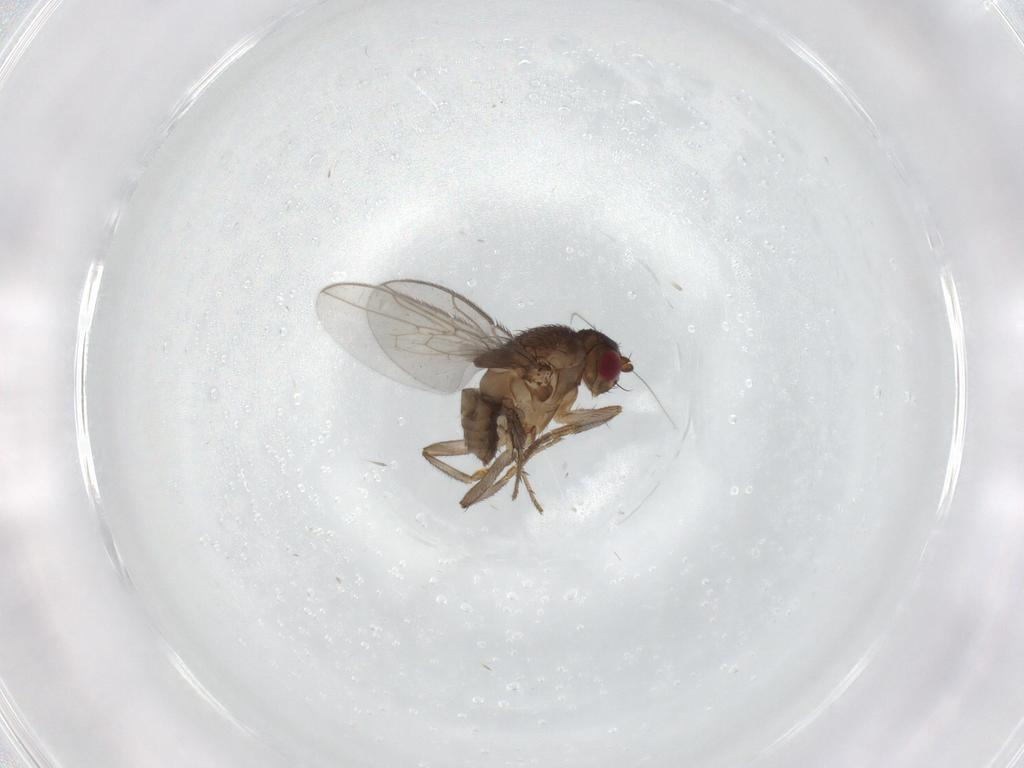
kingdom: Animalia
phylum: Arthropoda
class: Insecta
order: Diptera
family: Sphaeroceridae
